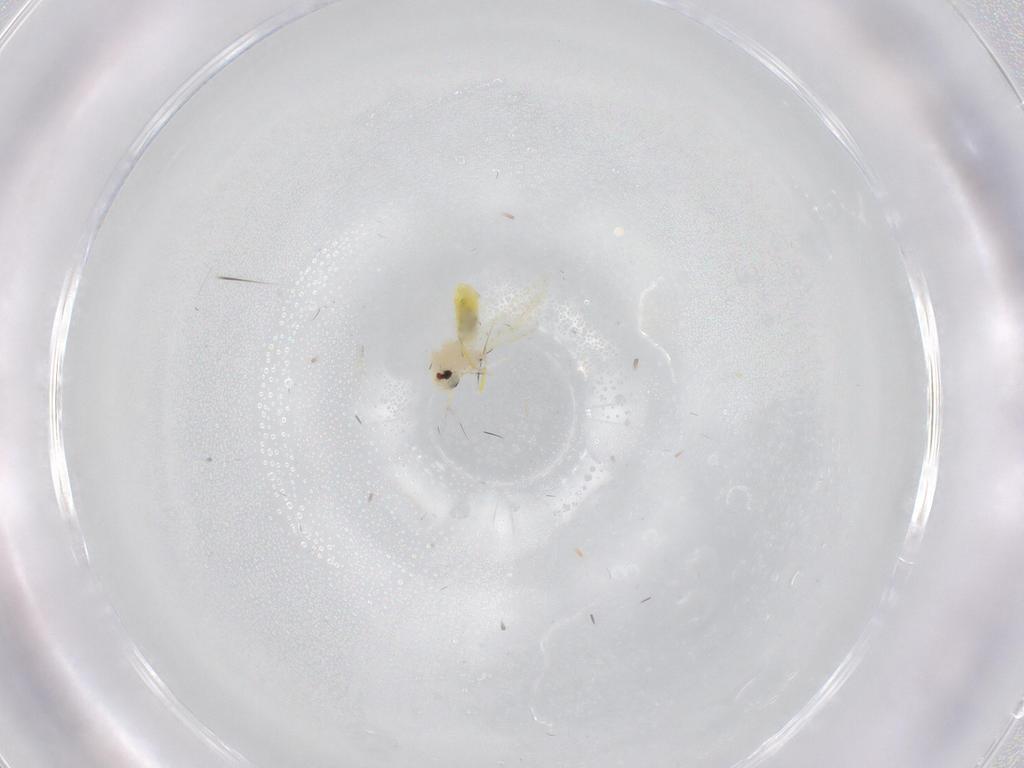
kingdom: Animalia
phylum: Arthropoda
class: Insecta
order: Hemiptera
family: Aleyrodidae
